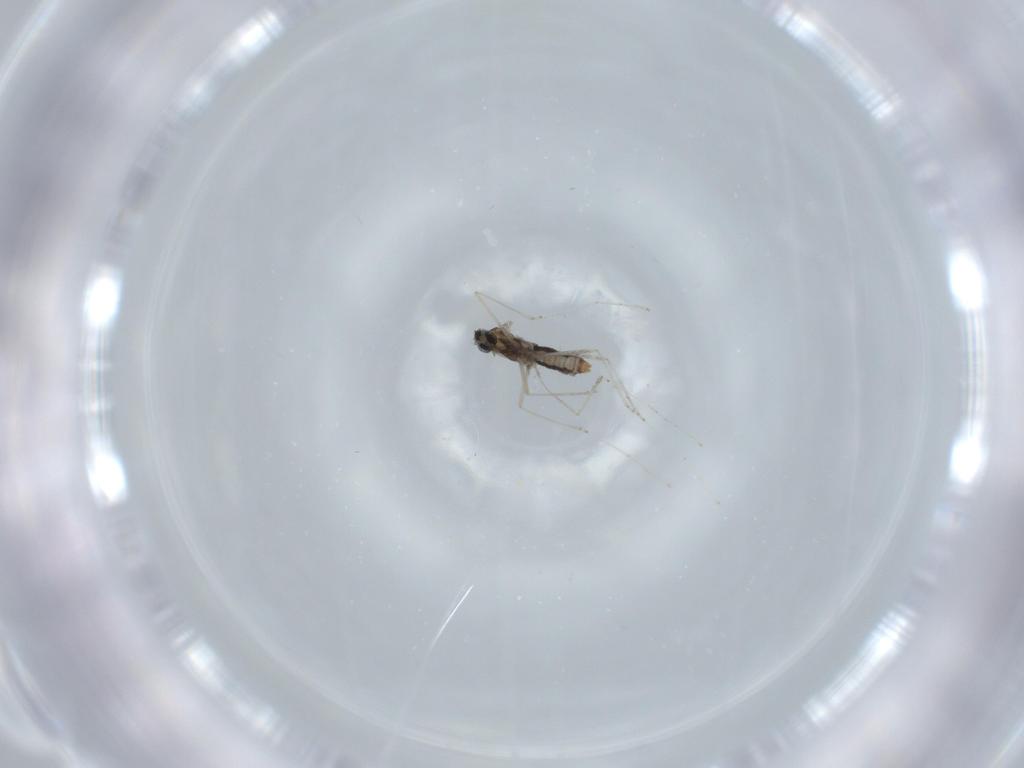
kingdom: Animalia
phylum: Arthropoda
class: Insecta
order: Diptera
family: Cecidomyiidae
